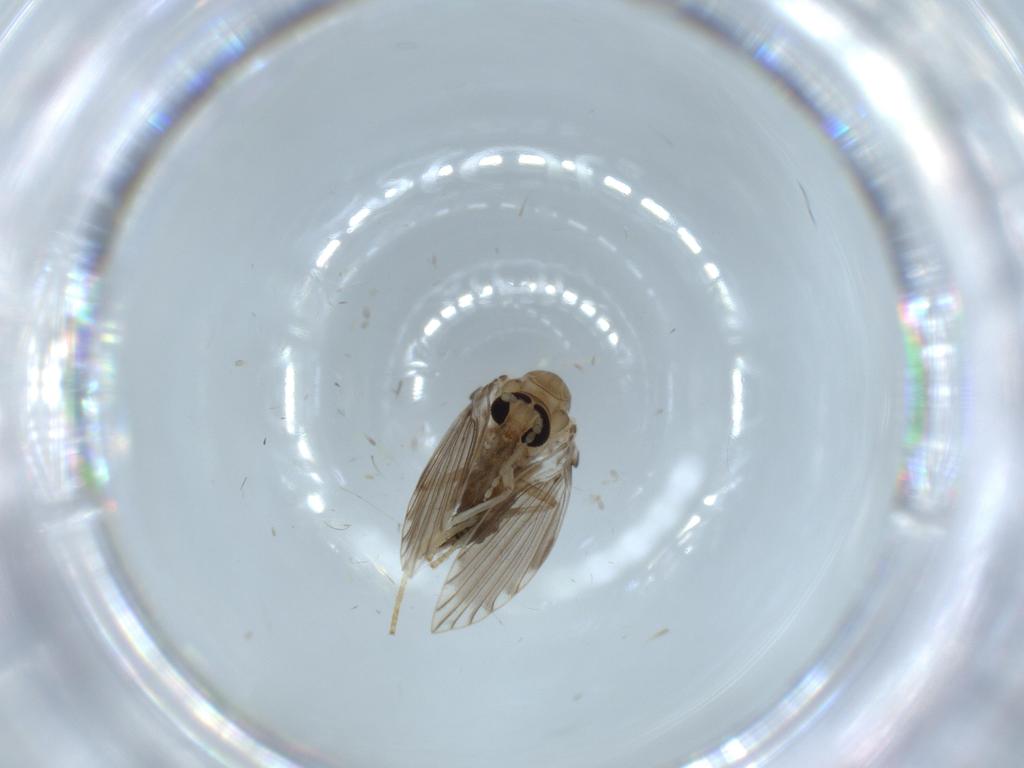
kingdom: Animalia
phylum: Arthropoda
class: Insecta
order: Diptera
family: Psychodidae
